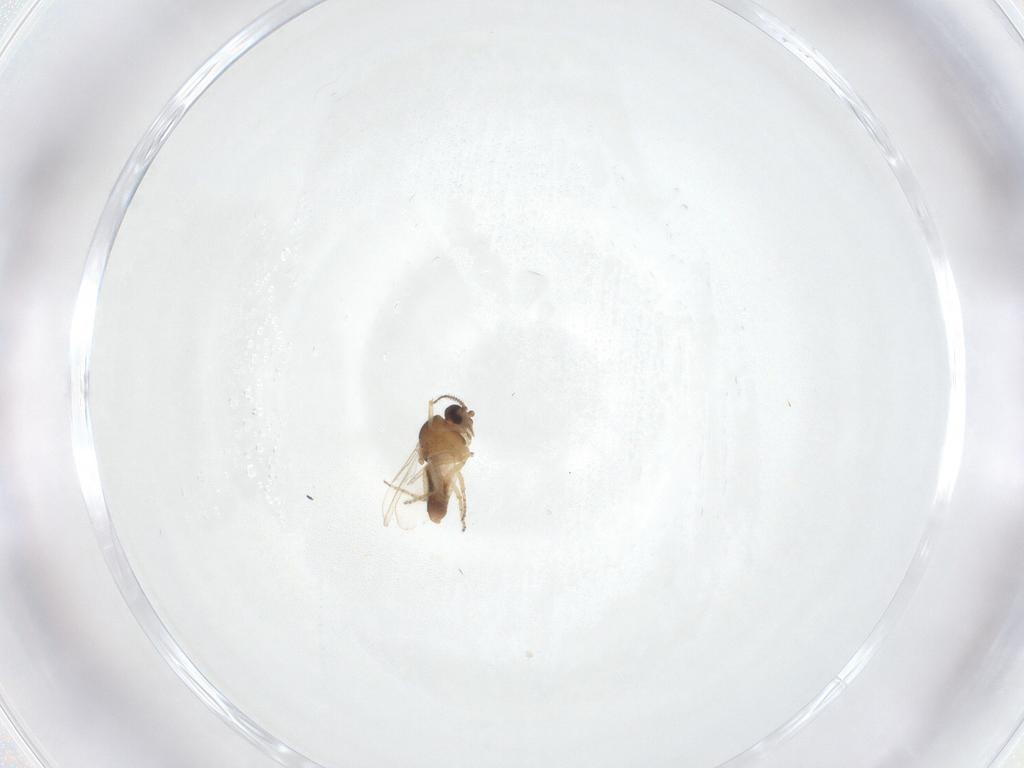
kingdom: Animalia
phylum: Arthropoda
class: Insecta
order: Diptera
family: Ceratopogonidae
